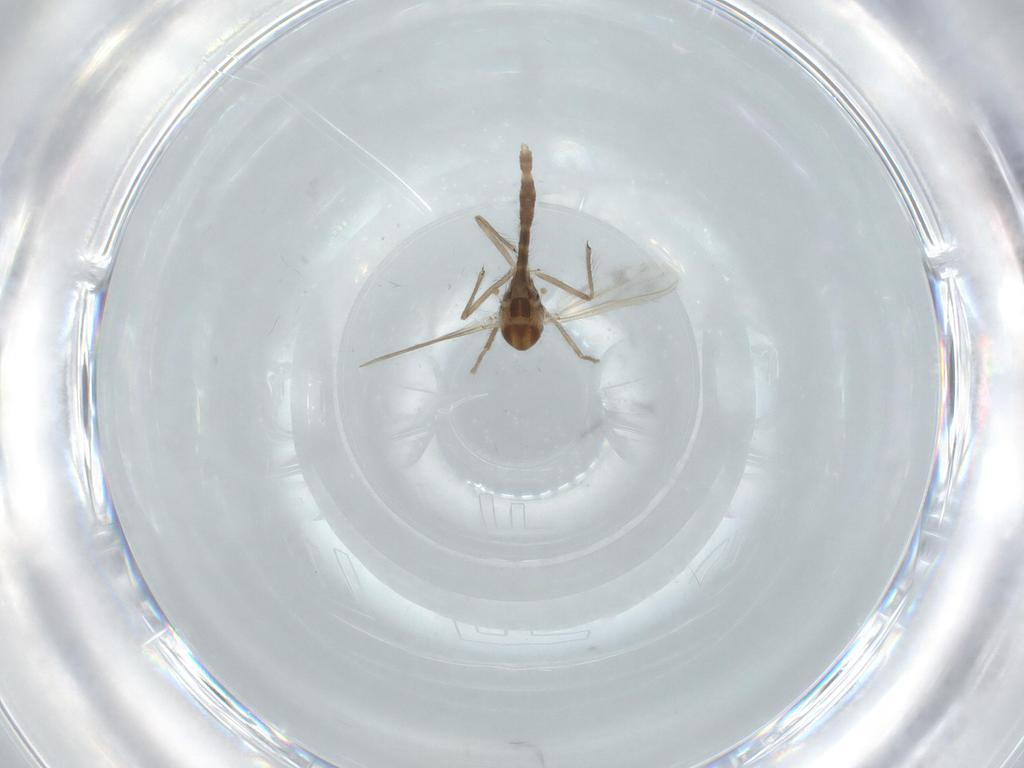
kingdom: Animalia
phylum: Arthropoda
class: Insecta
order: Diptera
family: Chironomidae
